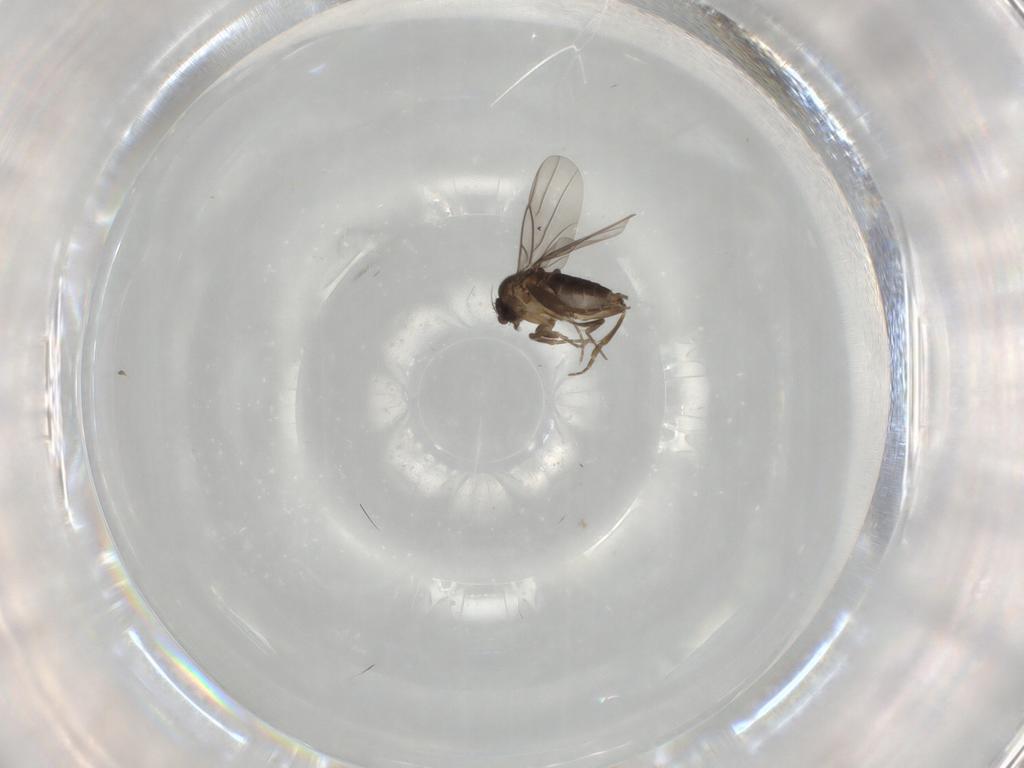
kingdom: Animalia
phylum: Arthropoda
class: Insecta
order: Diptera
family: Phoridae
